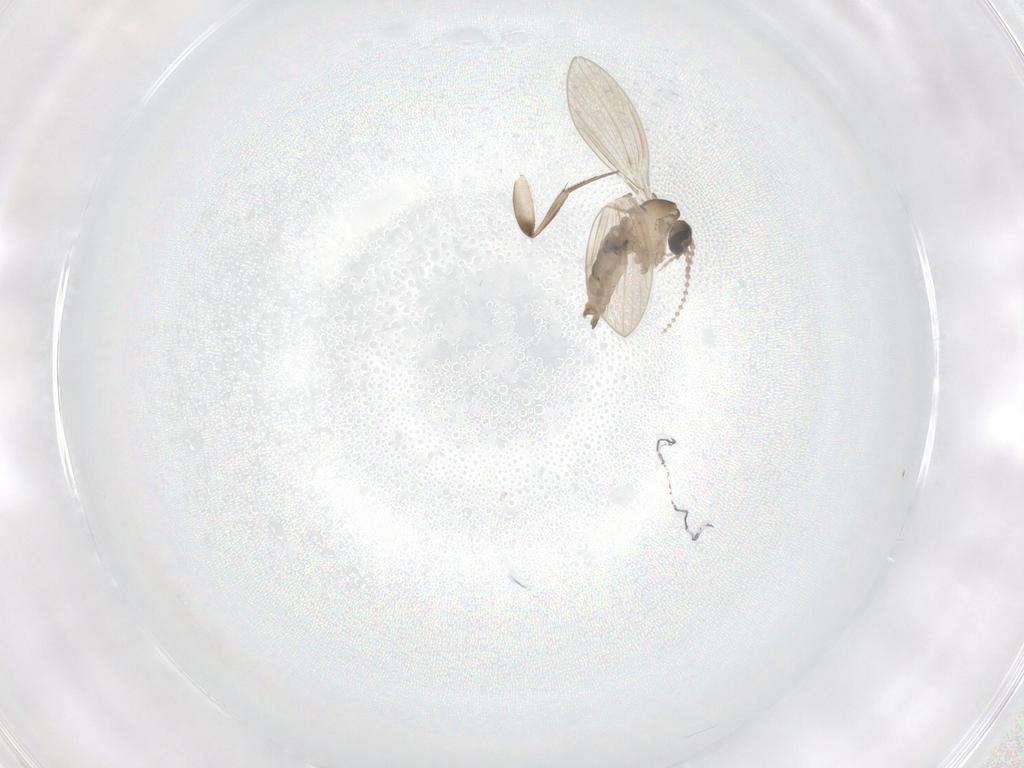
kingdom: Animalia
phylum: Arthropoda
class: Insecta
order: Diptera
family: Psychodidae
